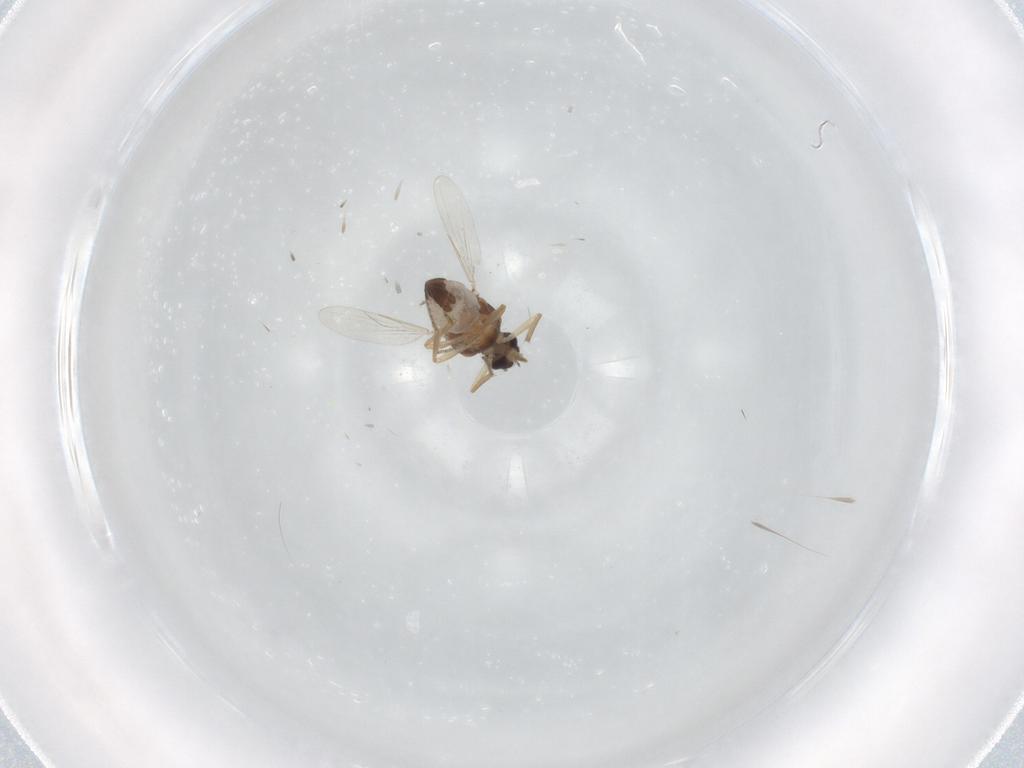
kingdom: Animalia
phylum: Arthropoda
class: Insecta
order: Diptera
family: Ceratopogonidae
